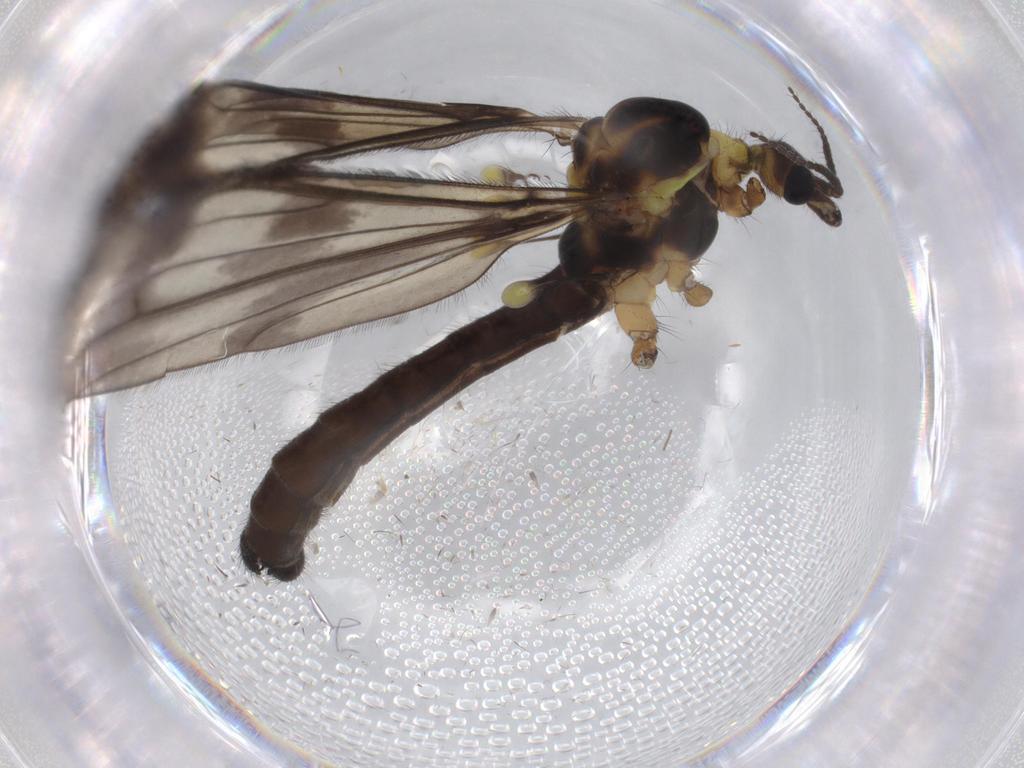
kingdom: Animalia
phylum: Arthropoda
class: Insecta
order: Diptera
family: Limoniidae
